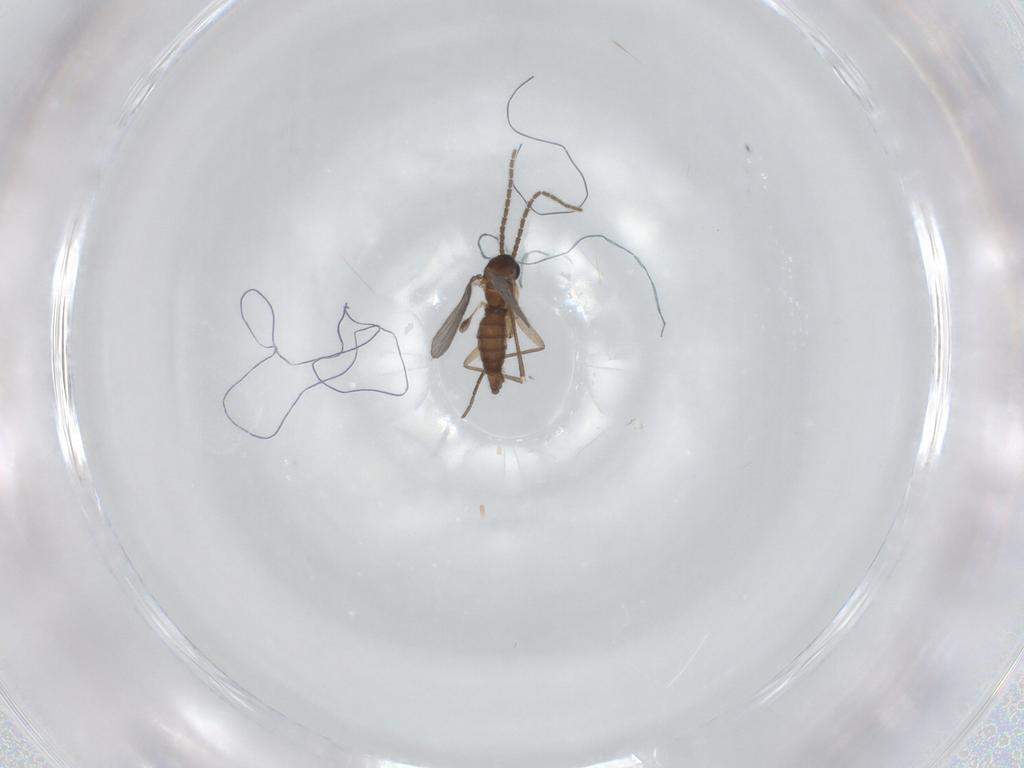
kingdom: Animalia
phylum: Arthropoda
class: Insecta
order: Diptera
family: Sciaridae
